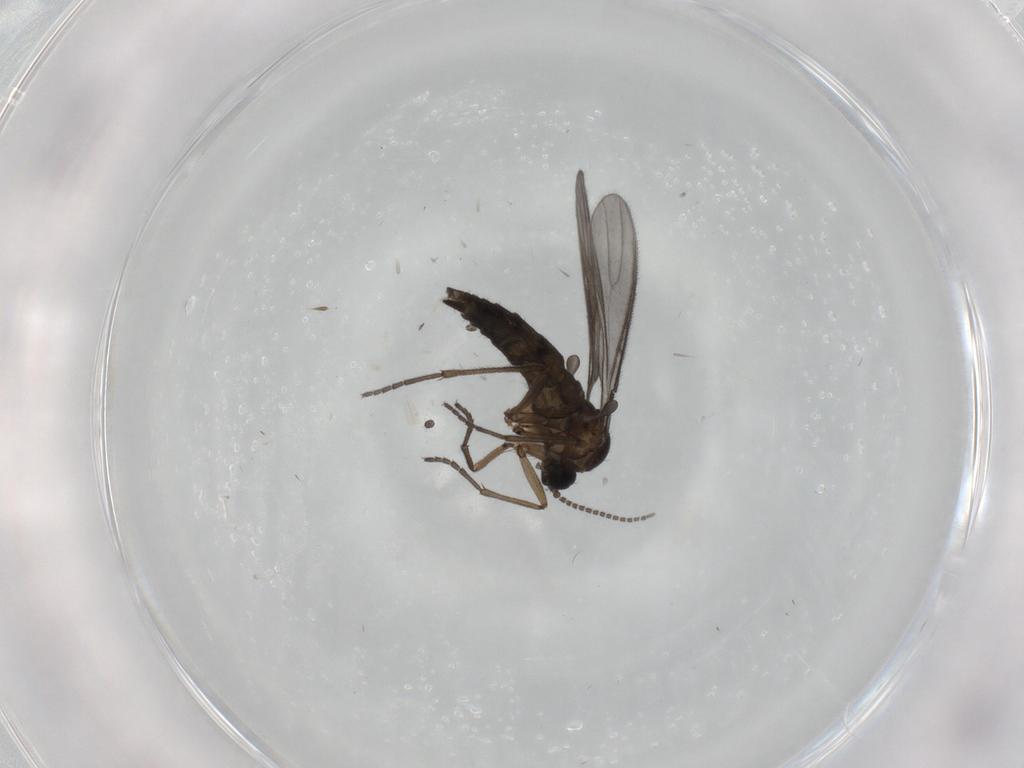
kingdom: Animalia
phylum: Arthropoda
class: Insecta
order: Diptera
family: Sciaridae
